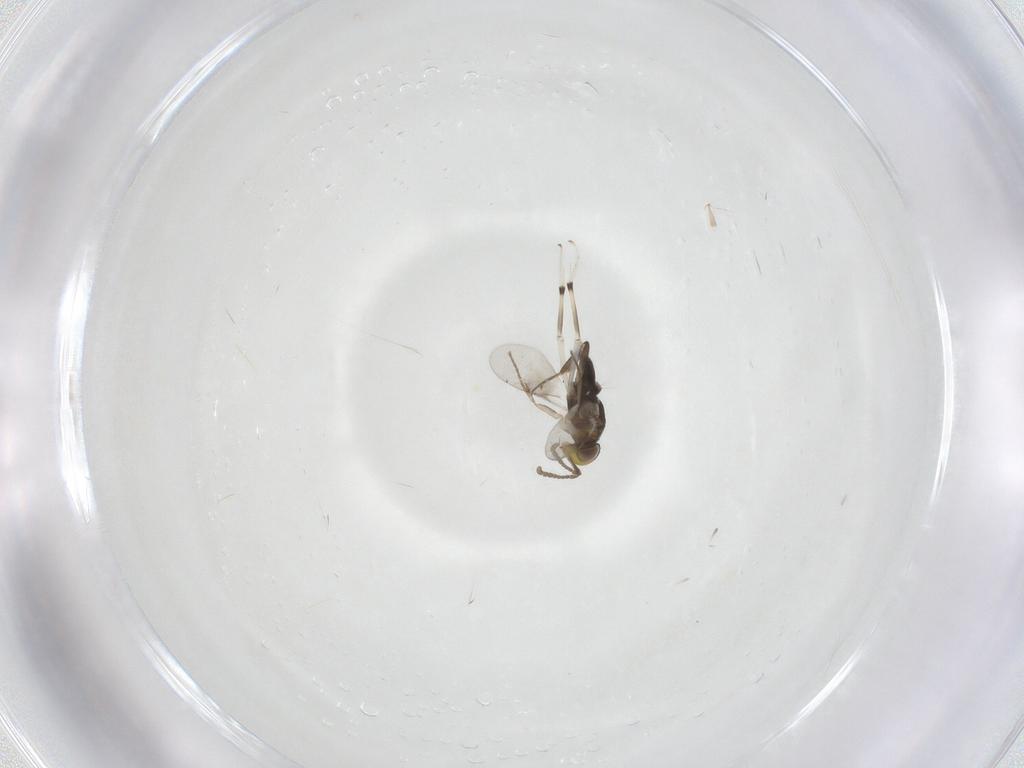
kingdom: Animalia
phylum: Arthropoda
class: Insecta
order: Hymenoptera
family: Encyrtidae
